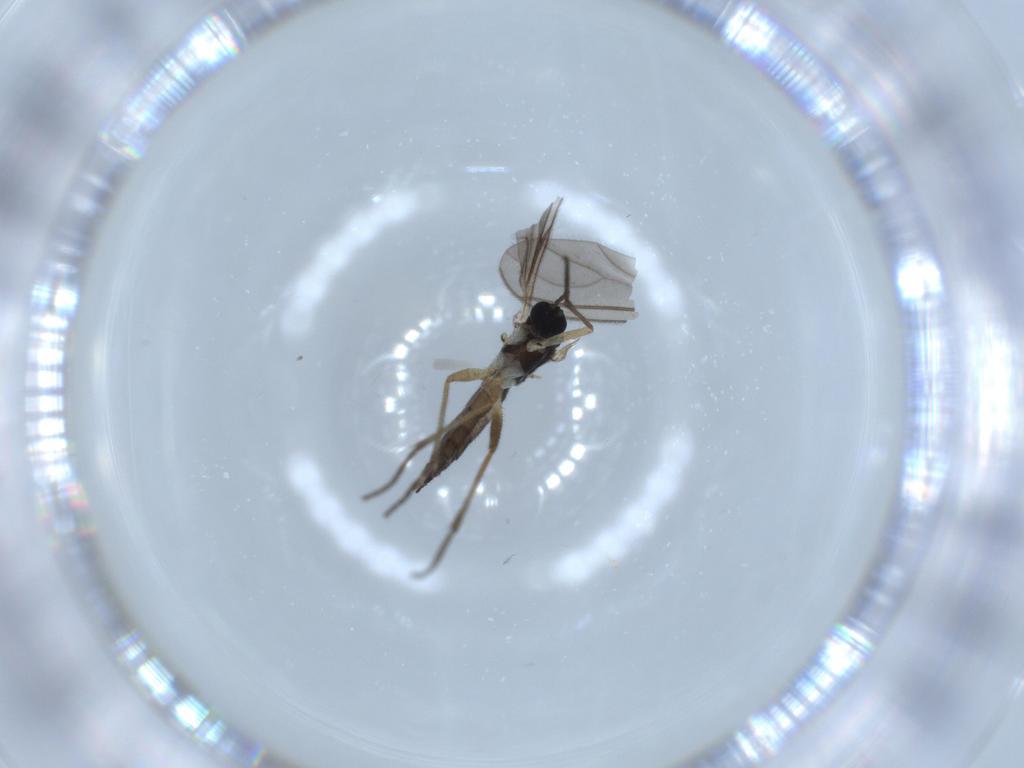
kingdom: Animalia
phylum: Arthropoda
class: Insecta
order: Diptera
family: Sciaridae
